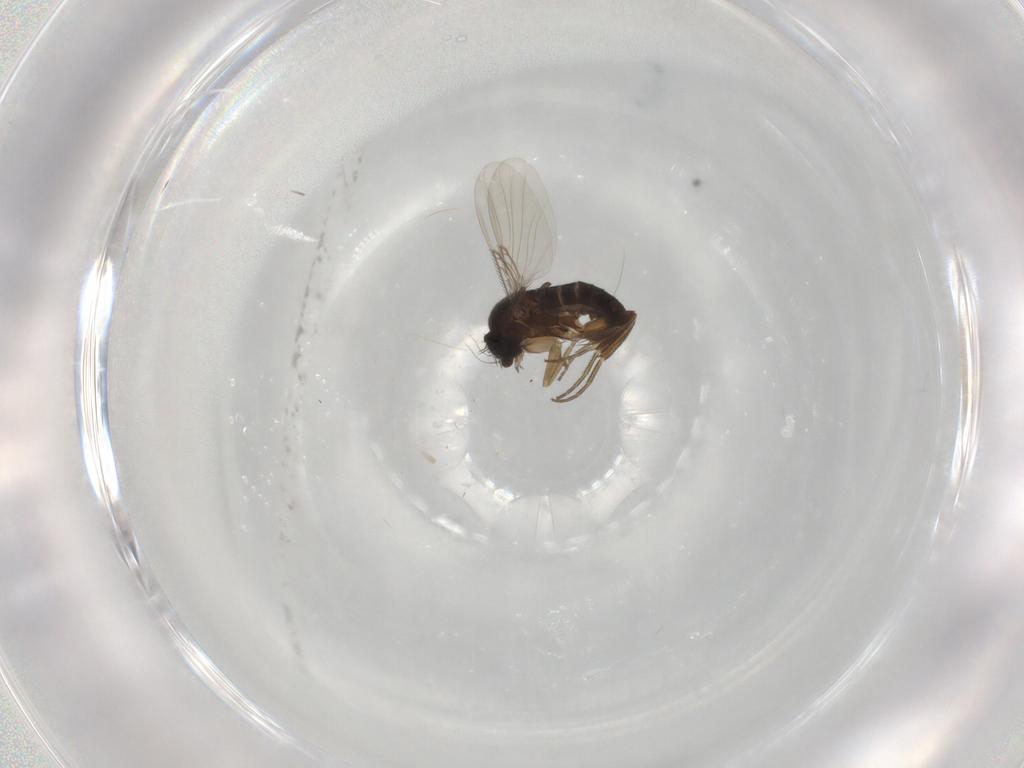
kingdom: Animalia
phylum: Arthropoda
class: Insecta
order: Diptera
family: Phoridae
